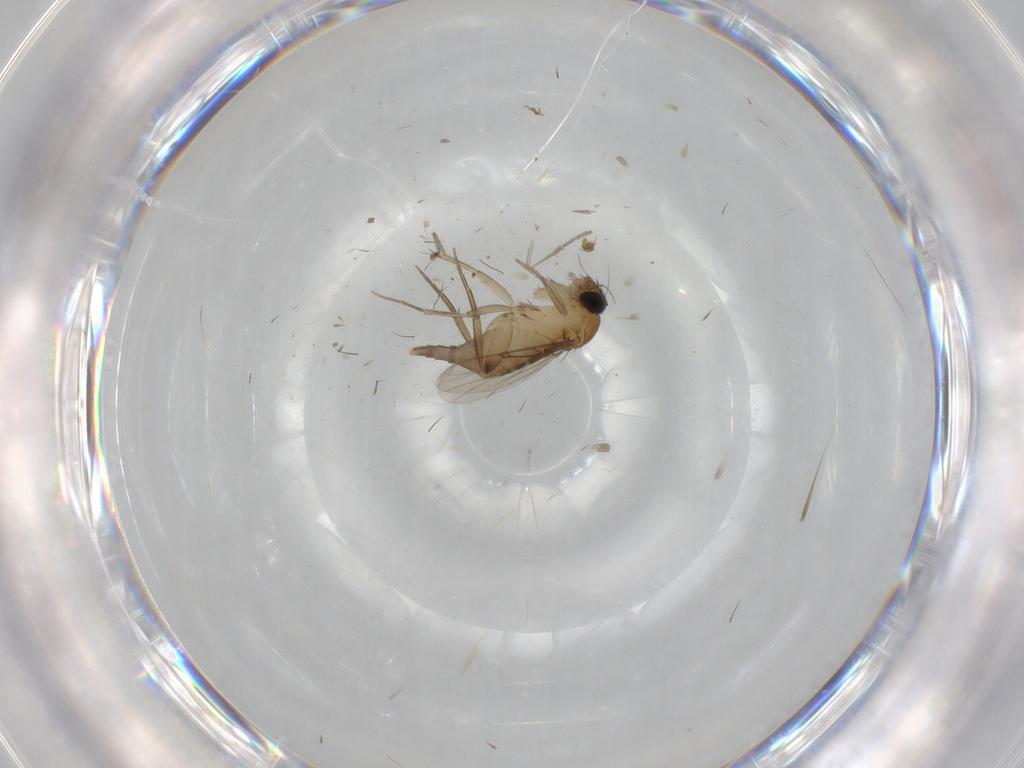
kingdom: Animalia
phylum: Arthropoda
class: Insecta
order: Diptera
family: Phoridae
